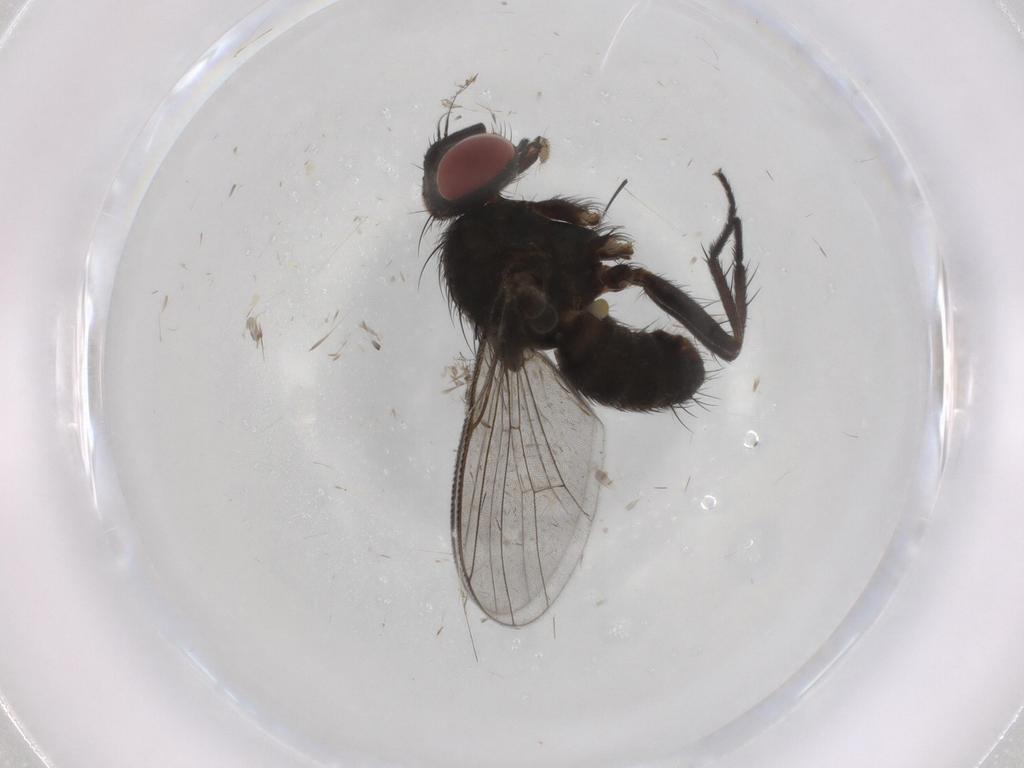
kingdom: Animalia
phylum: Arthropoda
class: Insecta
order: Diptera
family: Muscidae
